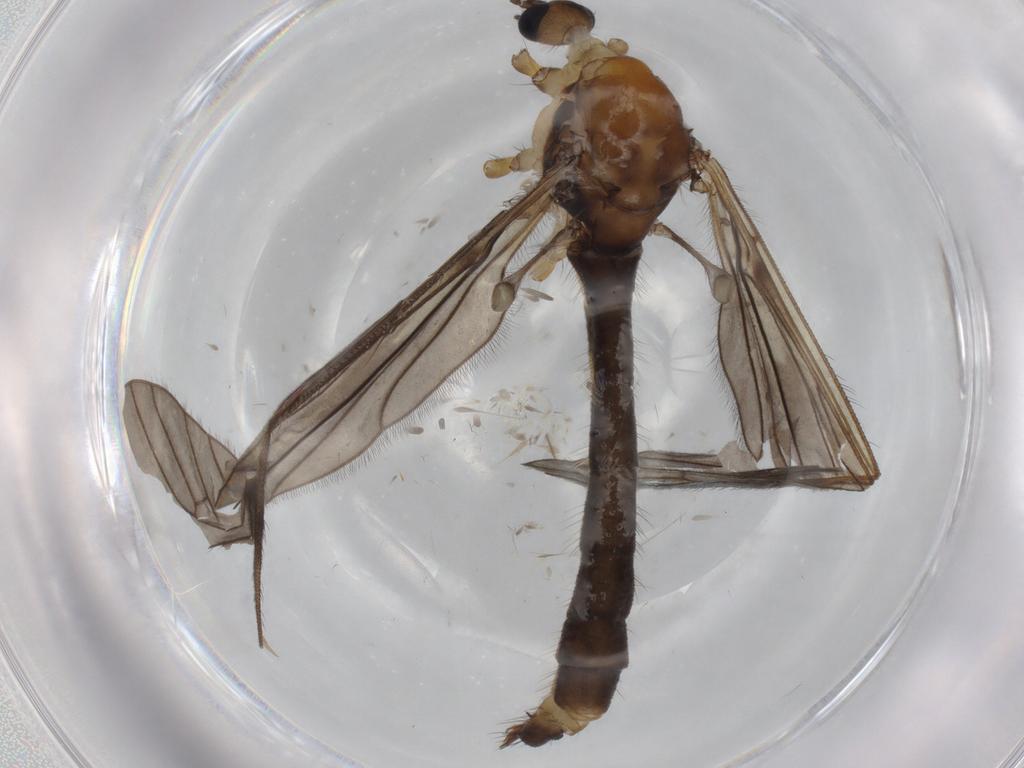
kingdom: Animalia
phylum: Arthropoda
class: Insecta
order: Diptera
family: Limoniidae
